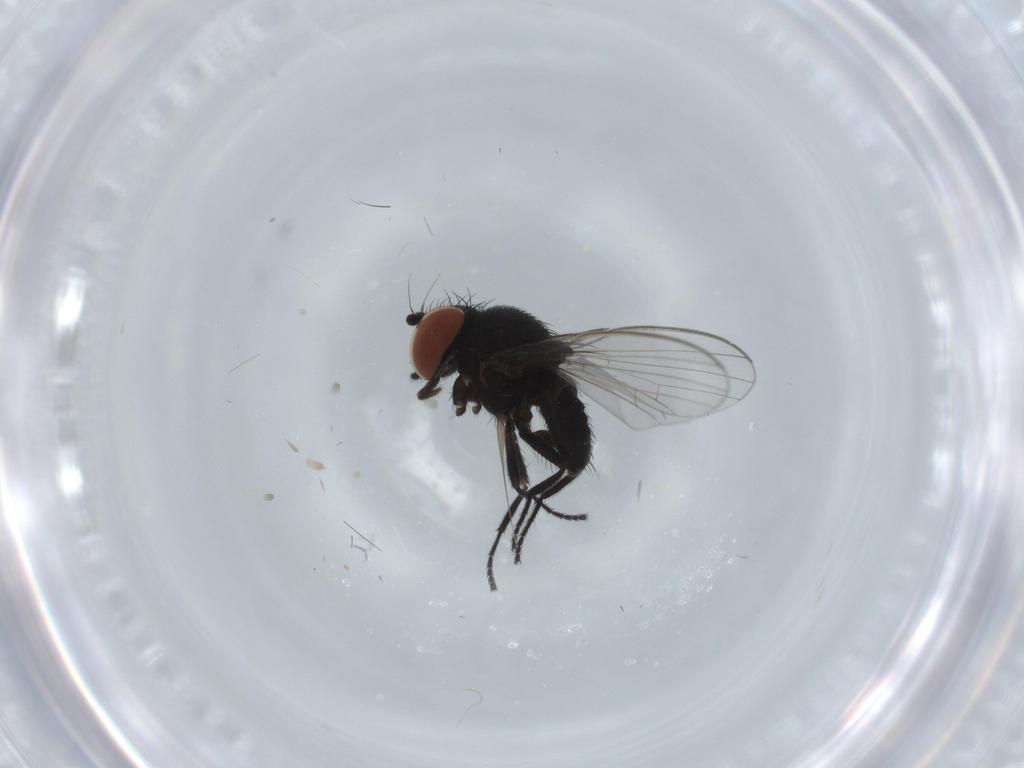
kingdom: Animalia
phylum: Arthropoda
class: Insecta
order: Diptera
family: Milichiidae
